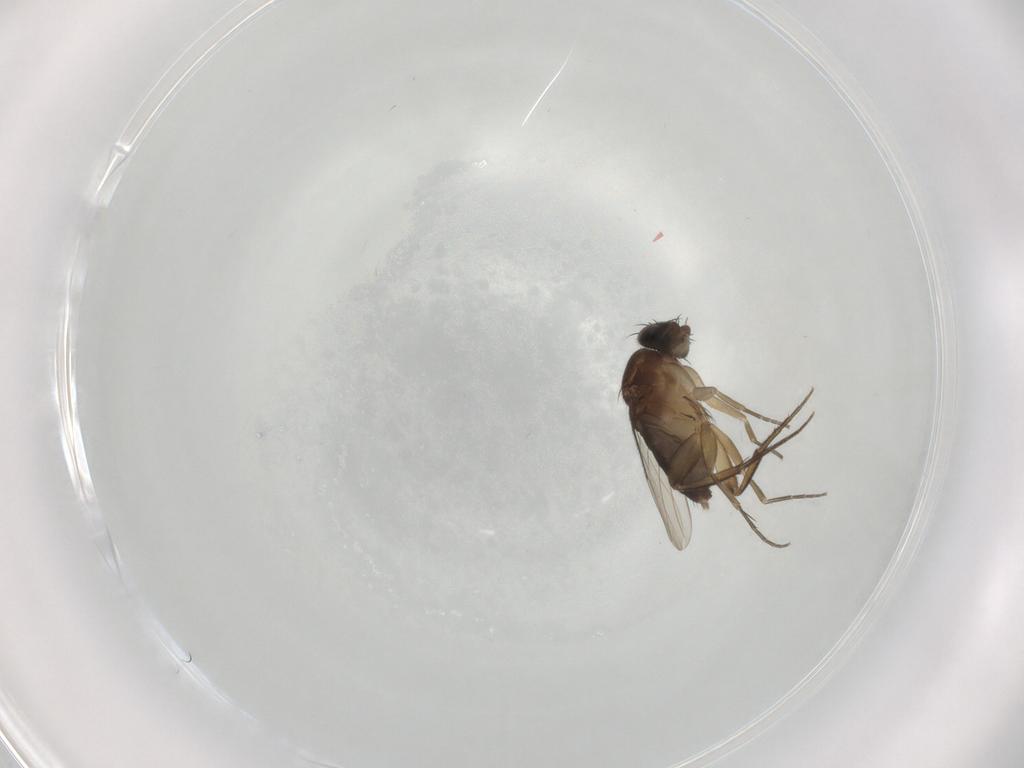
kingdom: Animalia
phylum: Arthropoda
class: Insecta
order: Diptera
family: Phoridae
